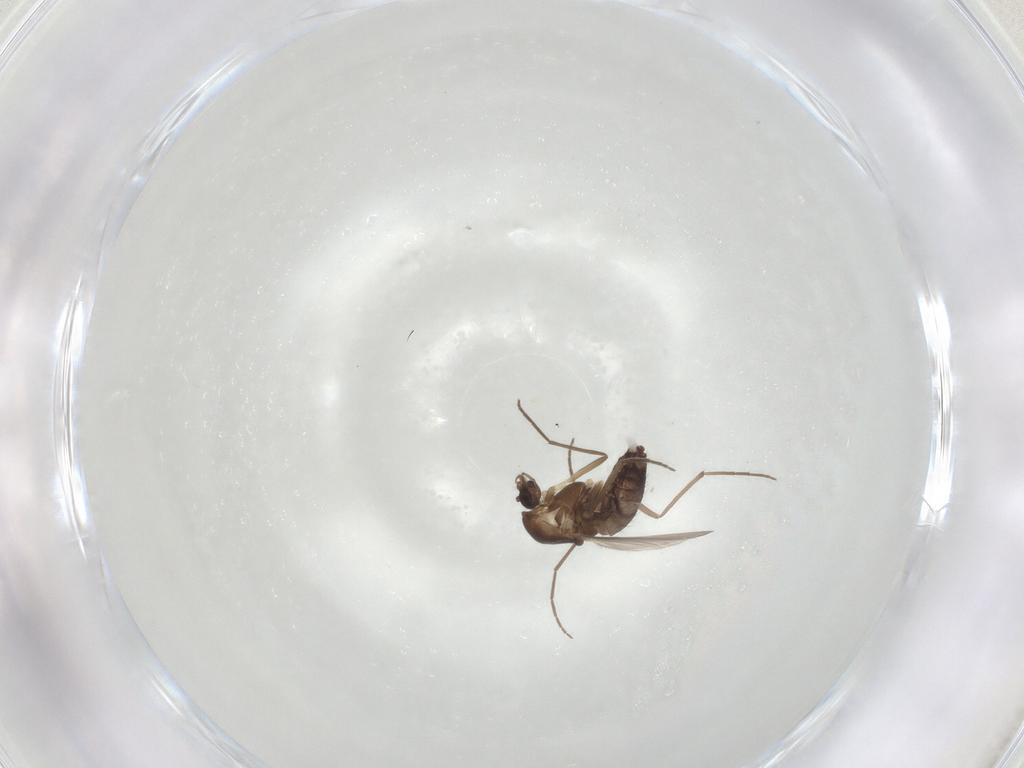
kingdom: Animalia
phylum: Arthropoda
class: Insecta
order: Diptera
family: Chironomidae
